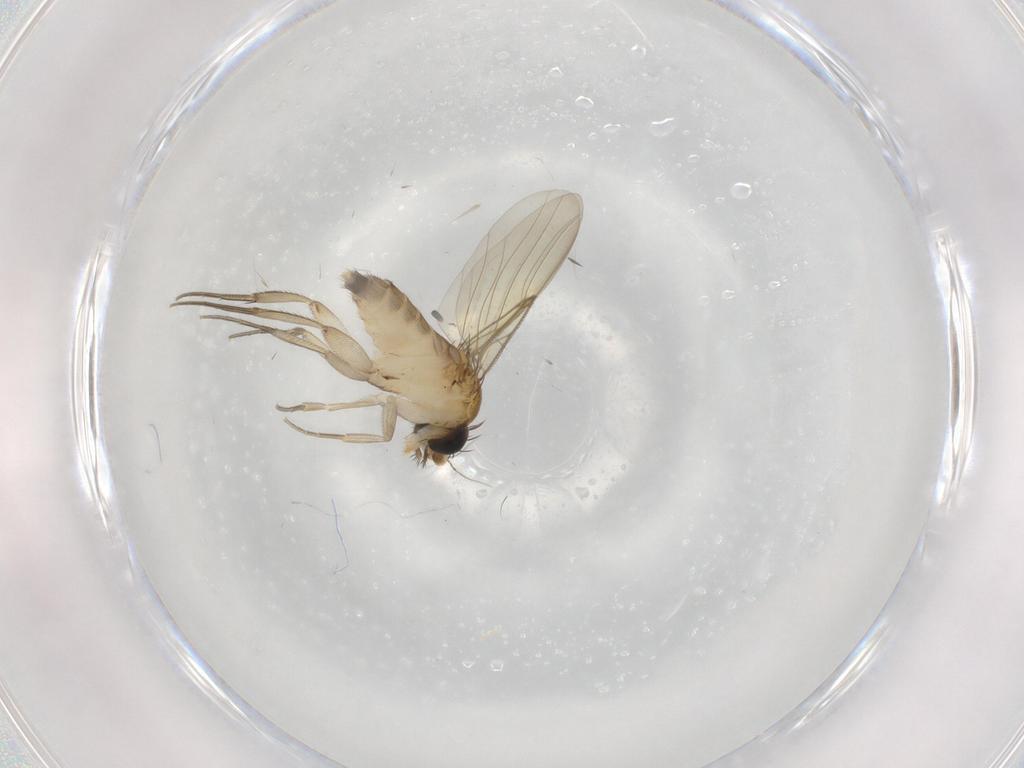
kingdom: Animalia
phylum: Arthropoda
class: Insecta
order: Diptera
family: Phoridae
